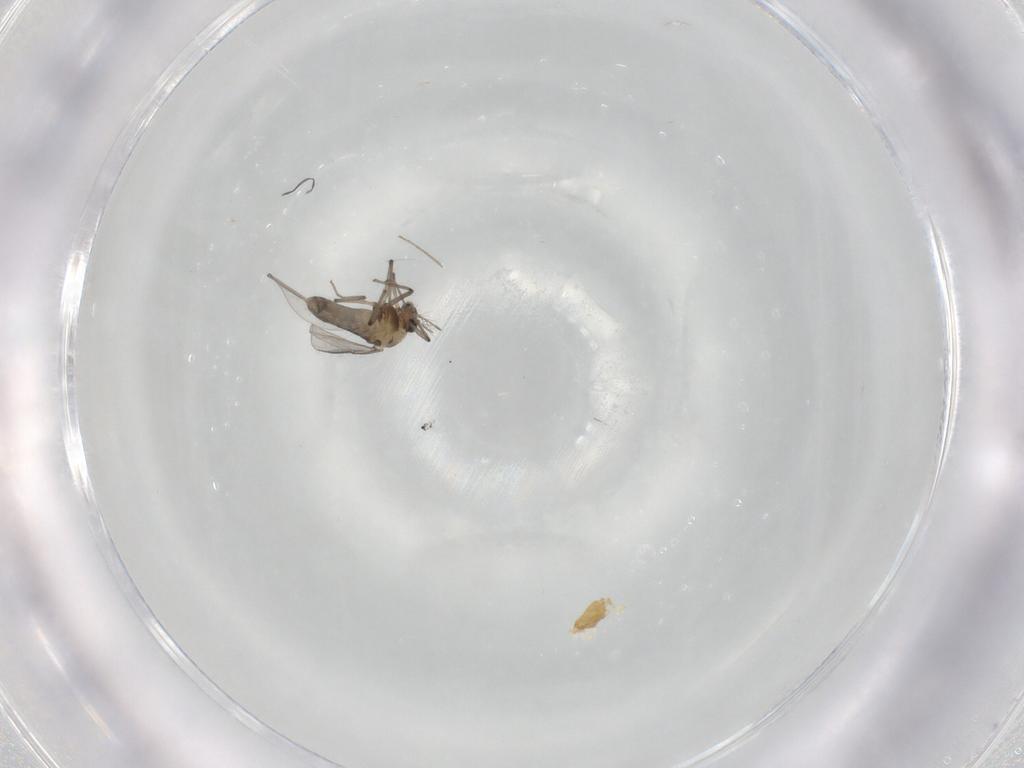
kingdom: Animalia
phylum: Arthropoda
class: Insecta
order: Diptera
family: Chironomidae
